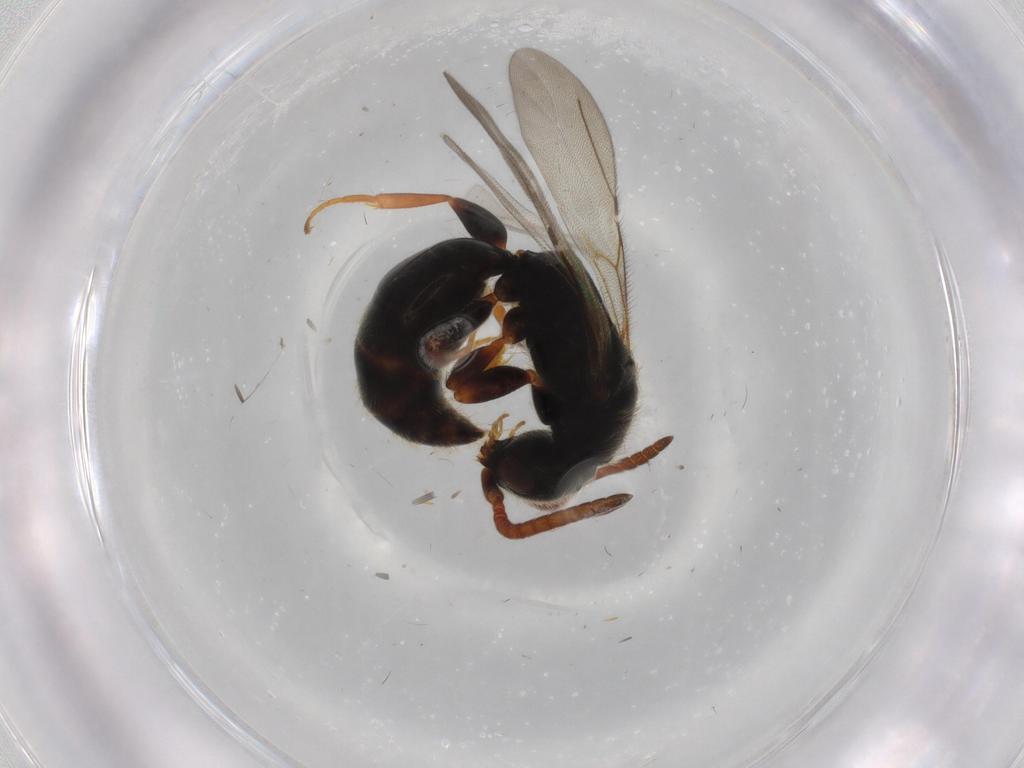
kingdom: Animalia
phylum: Arthropoda
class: Insecta
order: Hymenoptera
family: Bethylidae
